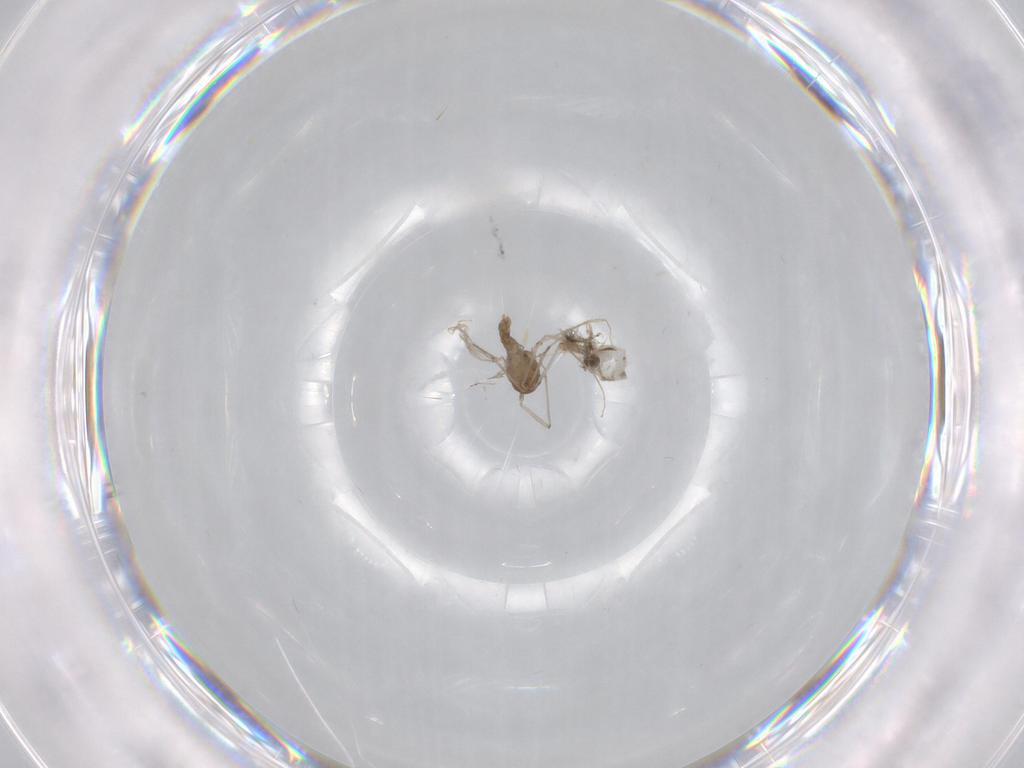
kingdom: Animalia
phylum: Arthropoda
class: Insecta
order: Diptera
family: Chironomidae
